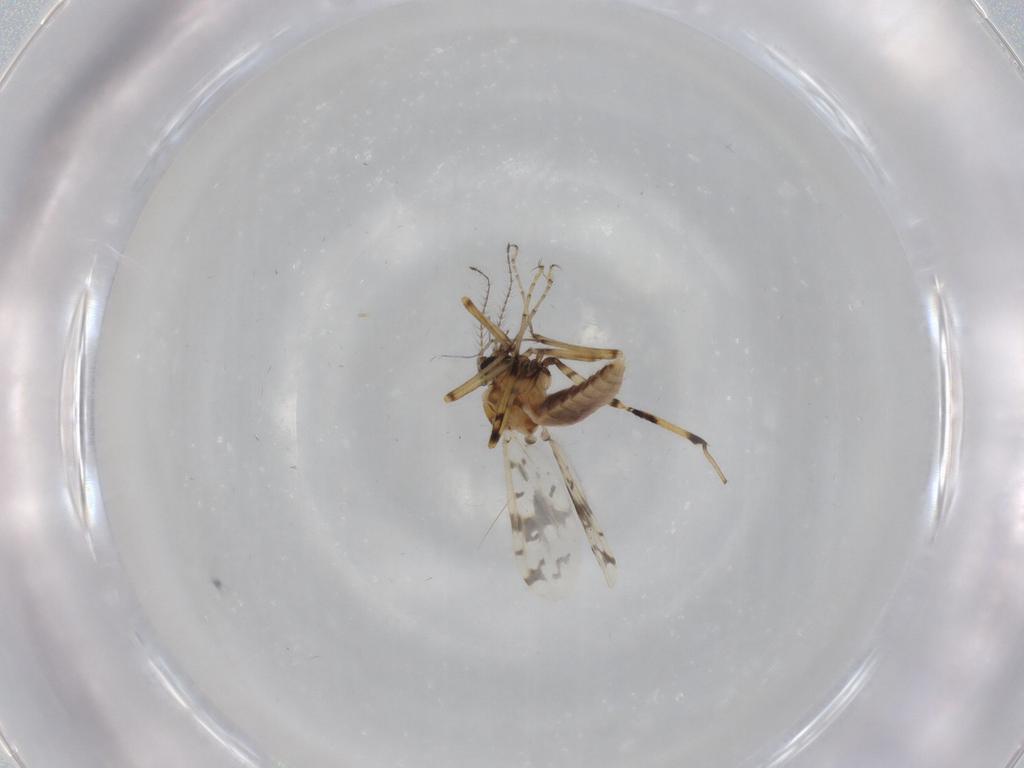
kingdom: Animalia
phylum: Arthropoda
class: Insecta
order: Diptera
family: Ceratopogonidae
